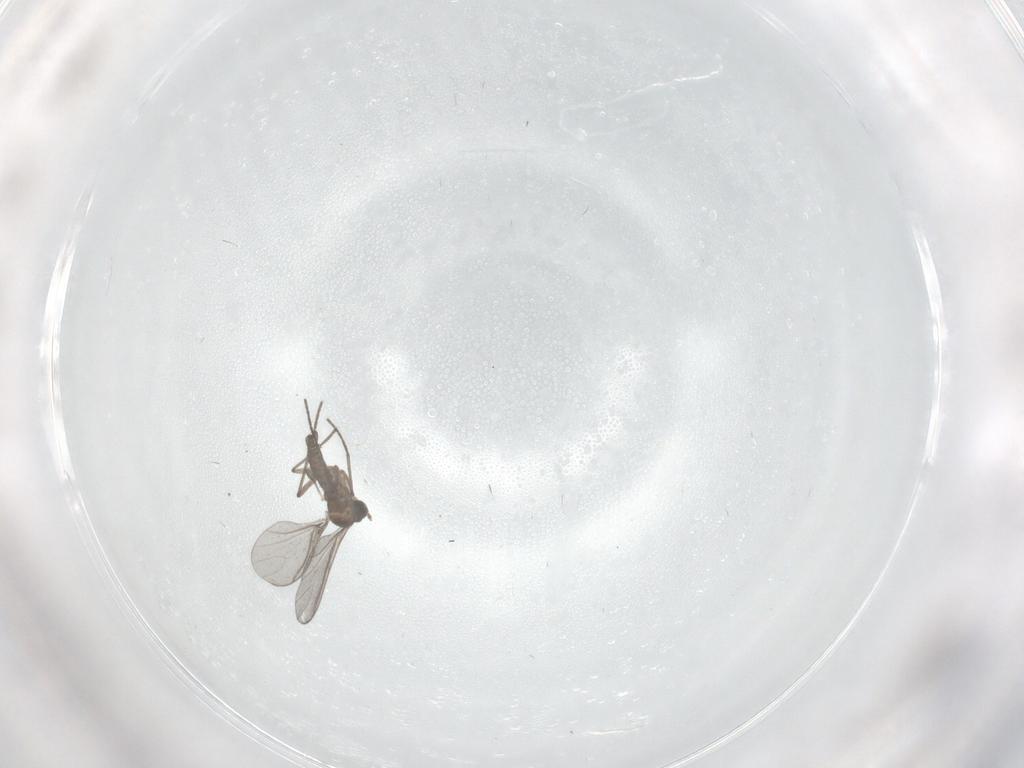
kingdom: Animalia
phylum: Arthropoda
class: Insecta
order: Diptera
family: Sciaridae
